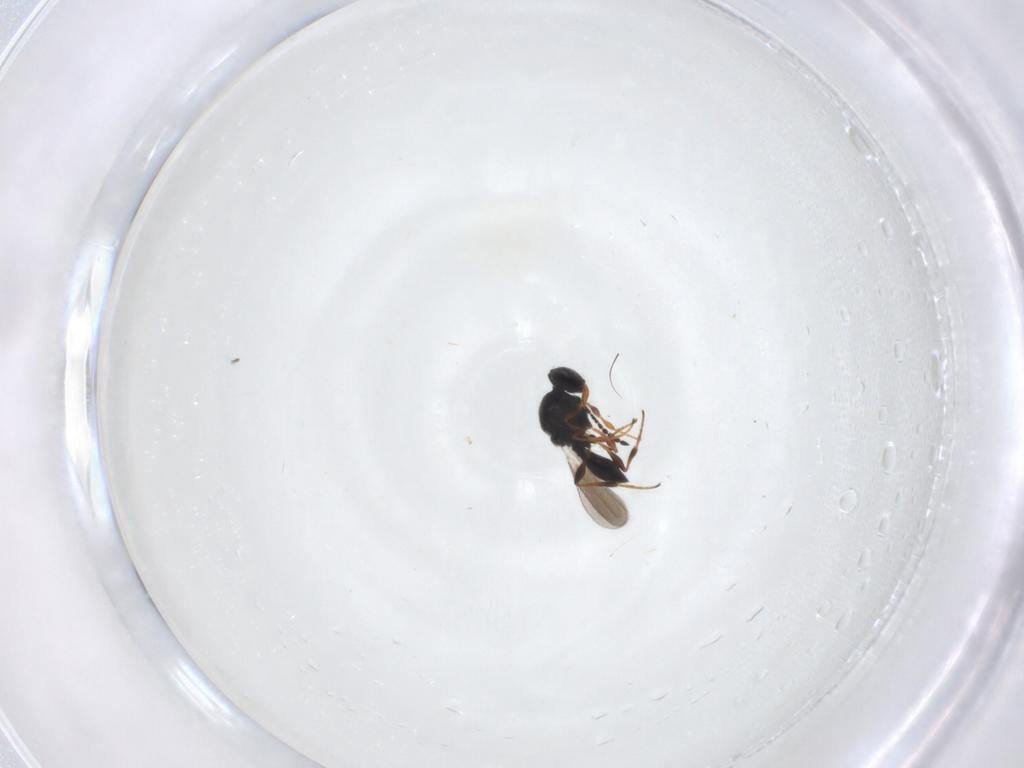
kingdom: Animalia
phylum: Arthropoda
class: Insecta
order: Hymenoptera
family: Platygastridae
